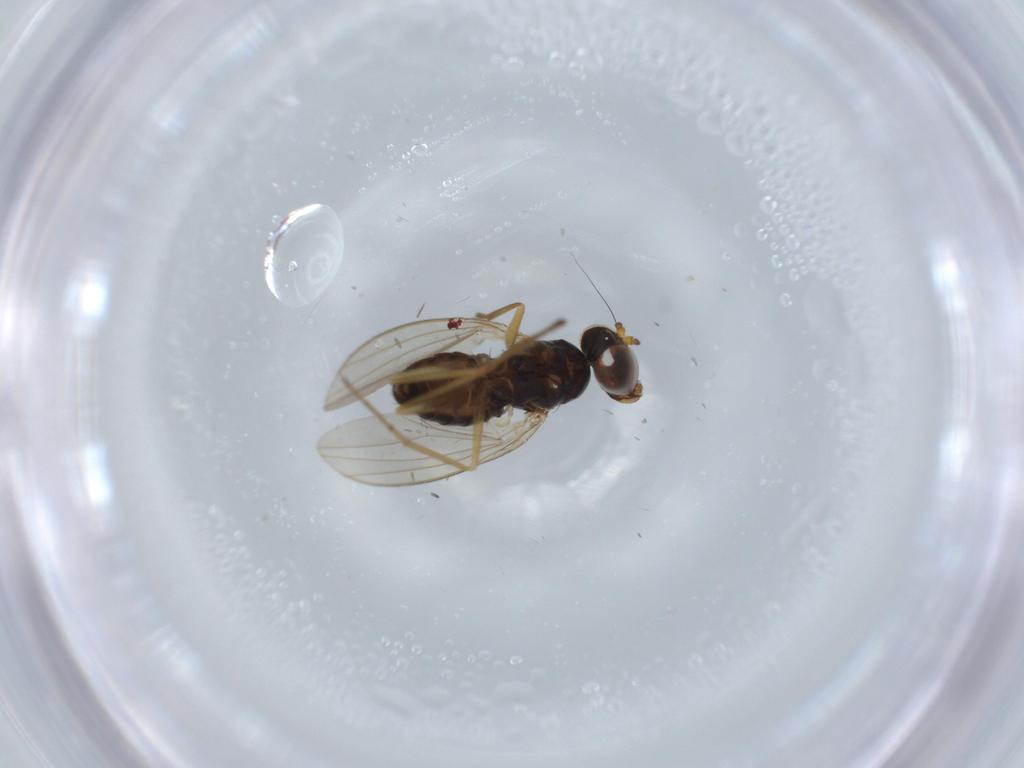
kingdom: Animalia
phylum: Arthropoda
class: Insecta
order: Diptera
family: Dolichopodidae
